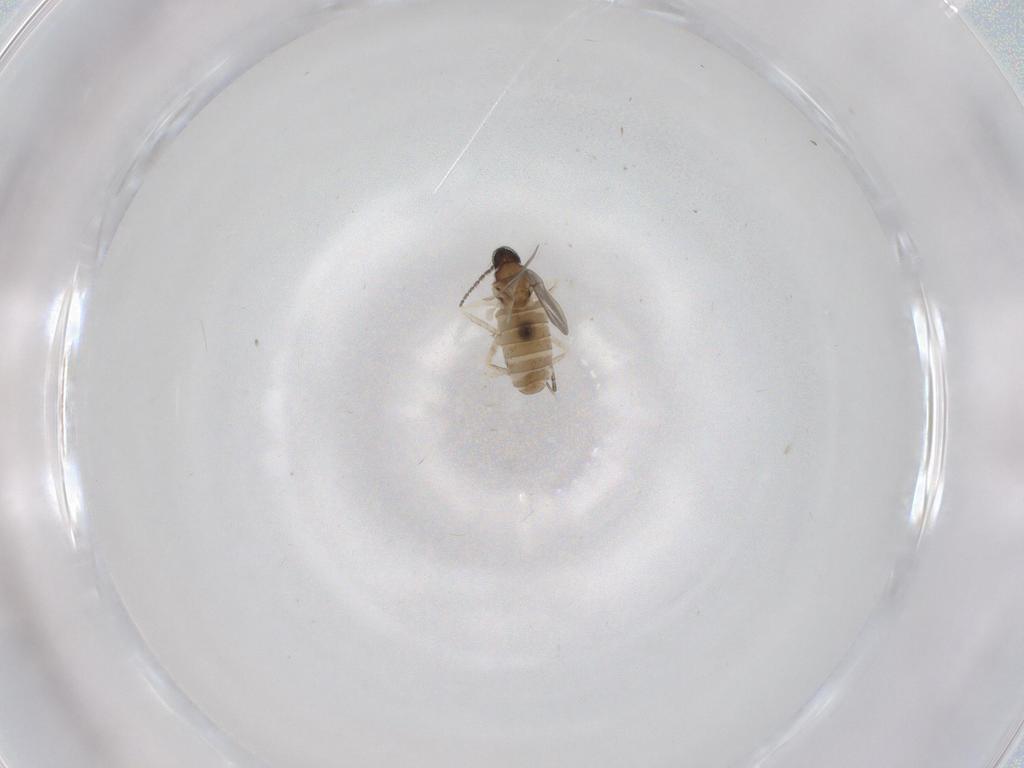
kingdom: Animalia
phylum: Arthropoda
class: Insecta
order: Diptera
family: Cecidomyiidae
